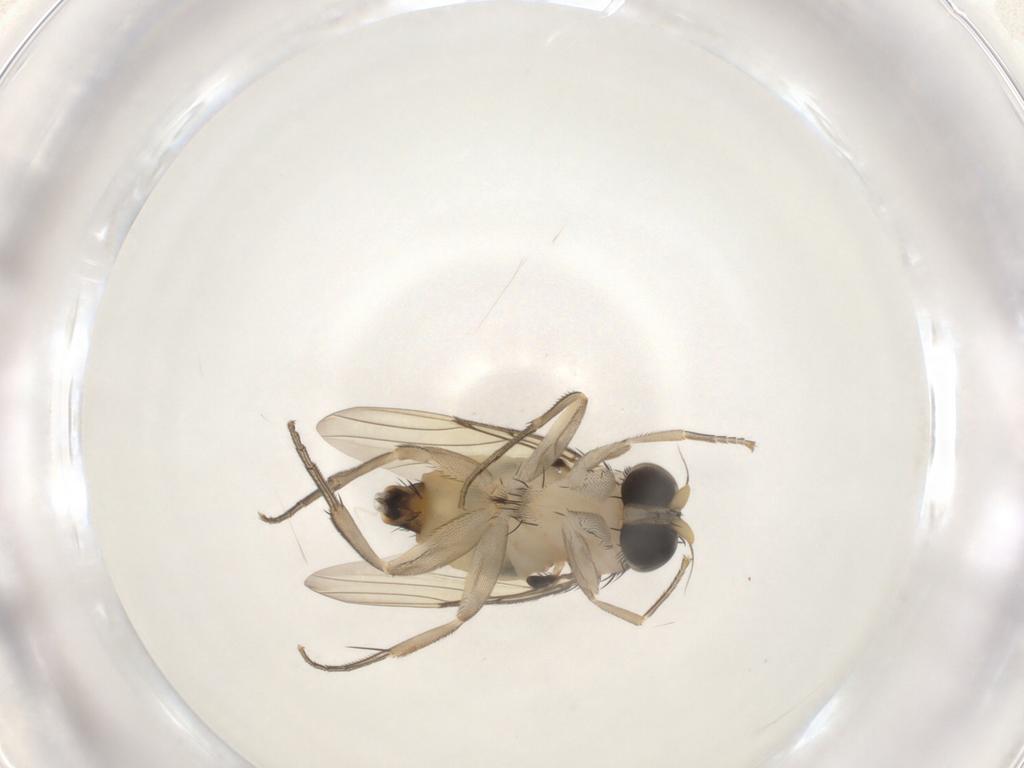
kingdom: Animalia
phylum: Arthropoda
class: Insecta
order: Diptera
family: Phoridae
